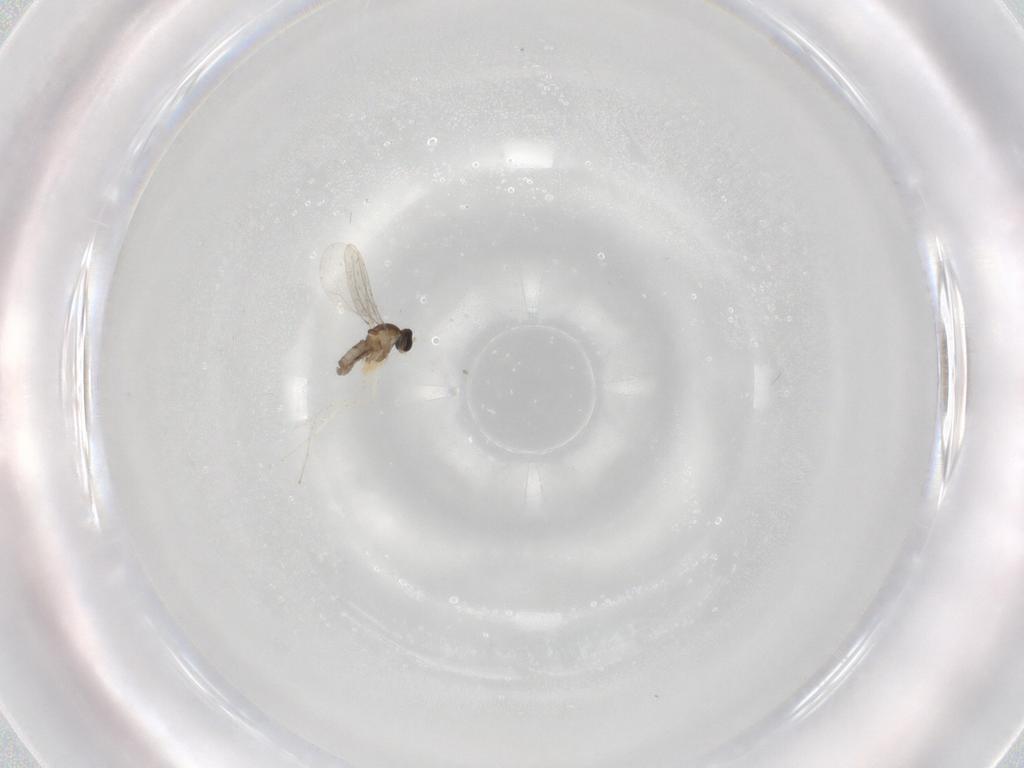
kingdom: Animalia
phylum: Arthropoda
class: Insecta
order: Diptera
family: Cecidomyiidae
